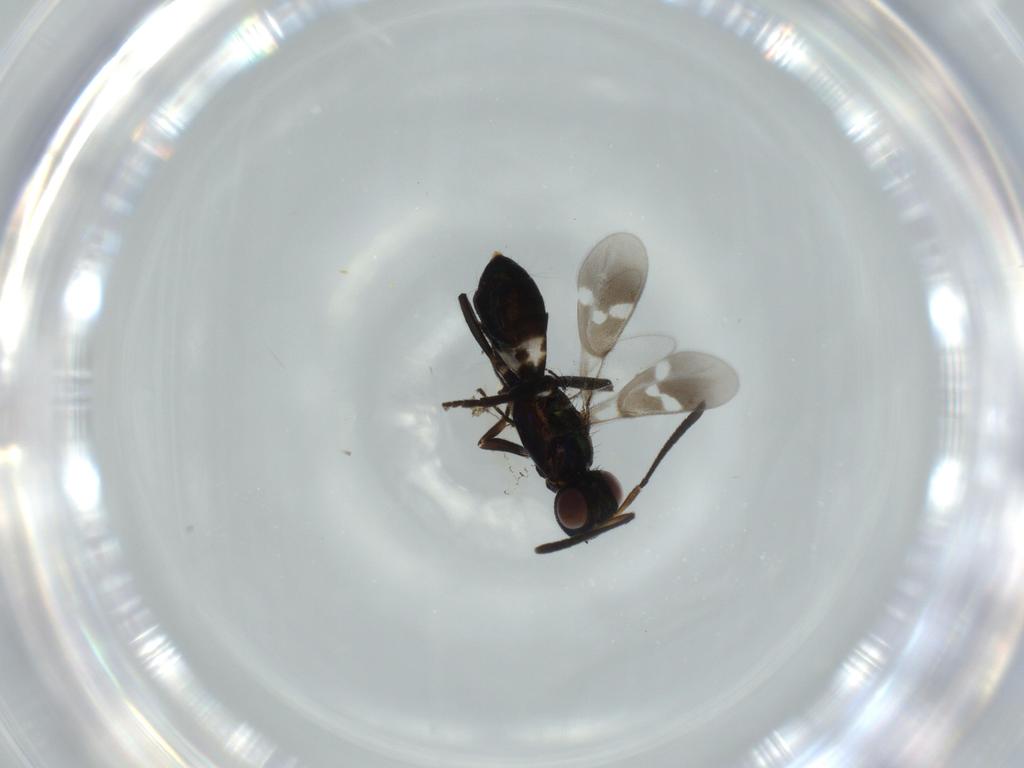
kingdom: Animalia
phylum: Arthropoda
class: Insecta
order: Hymenoptera
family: Eupelmidae
